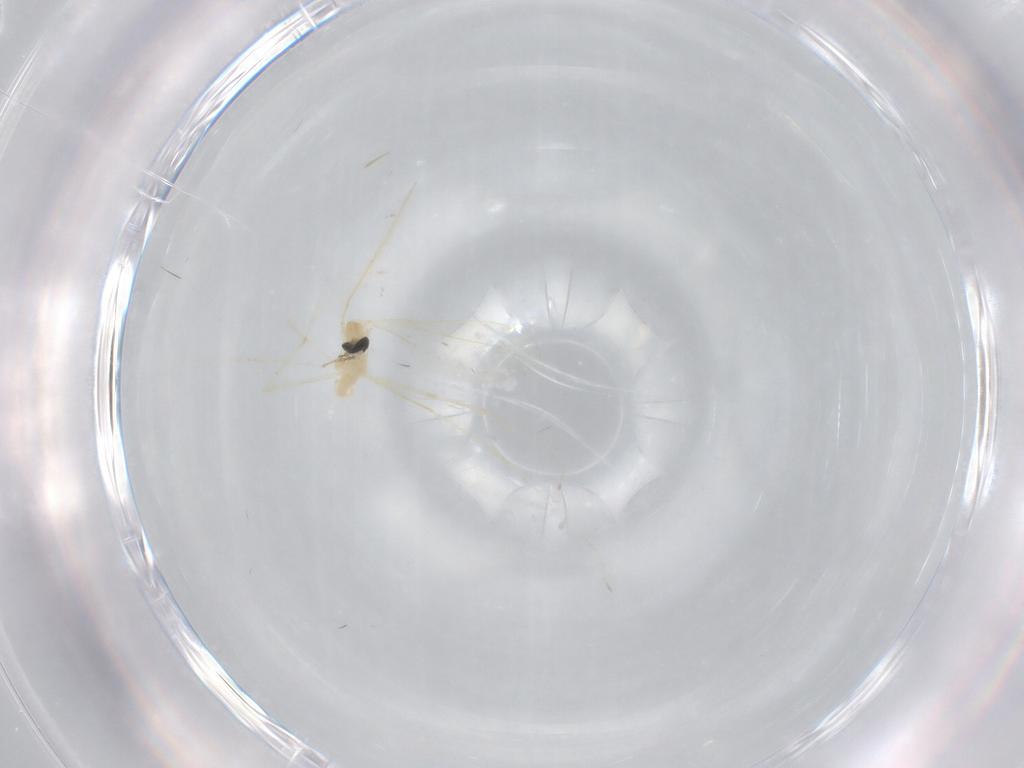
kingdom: Animalia
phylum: Arthropoda
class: Insecta
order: Diptera
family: Cecidomyiidae
